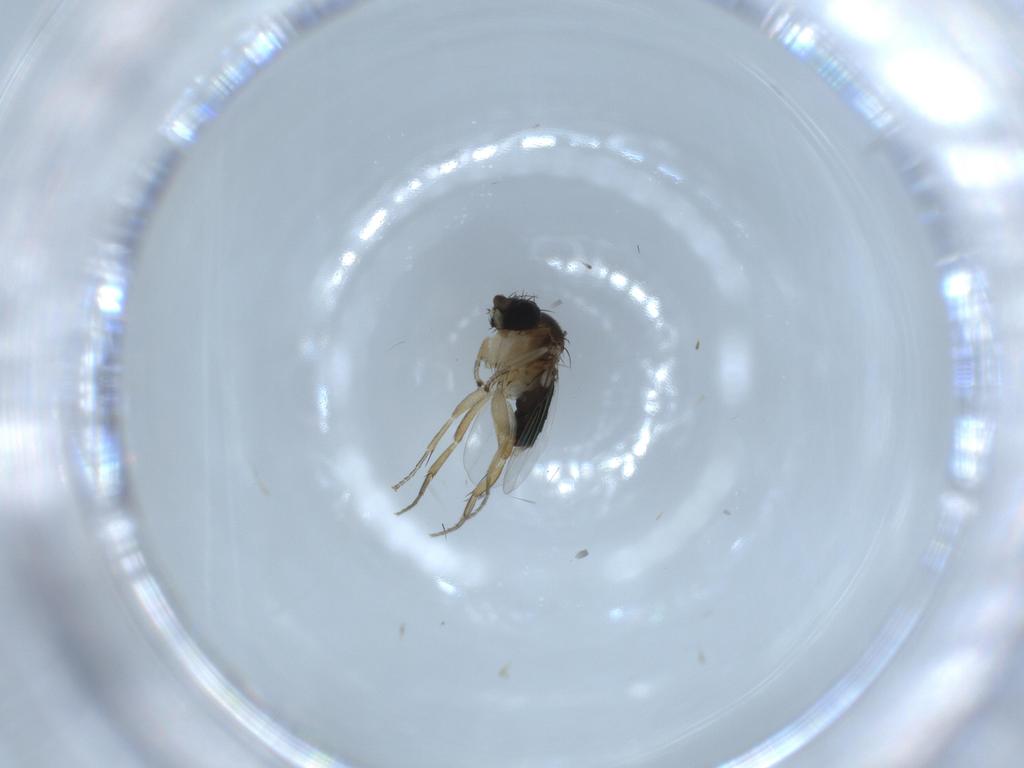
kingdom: Animalia
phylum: Arthropoda
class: Insecta
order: Diptera
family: Phoridae
